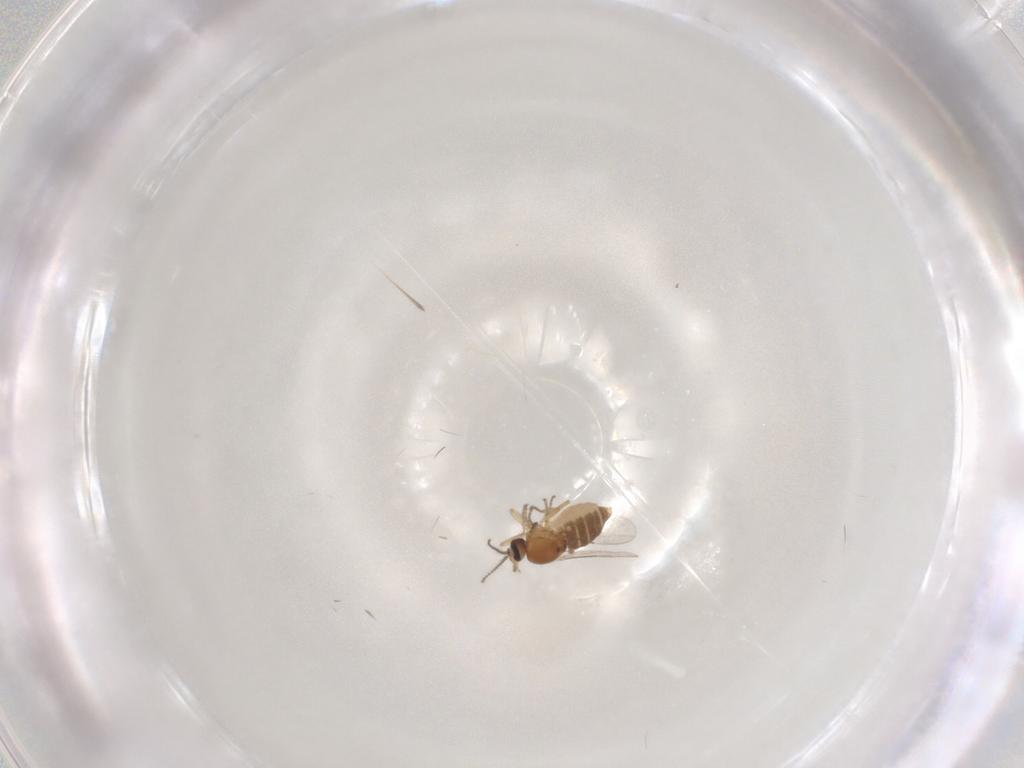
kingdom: Animalia
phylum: Arthropoda
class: Insecta
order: Diptera
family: Ceratopogonidae
